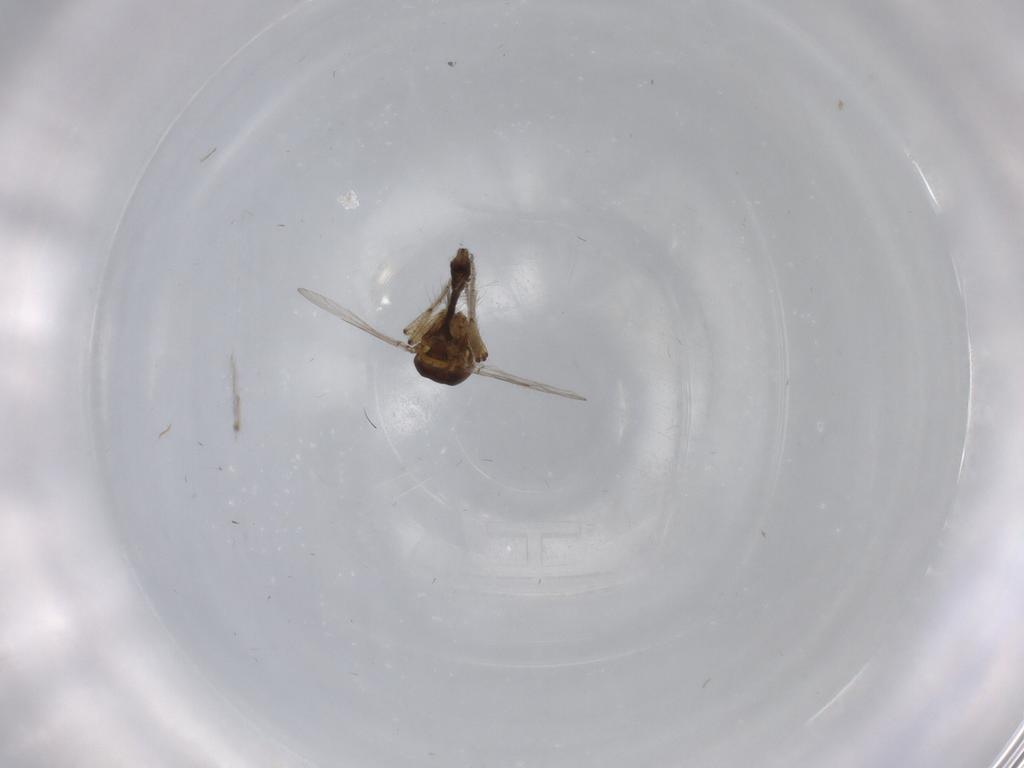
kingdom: Animalia
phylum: Arthropoda
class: Insecta
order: Diptera
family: Ceratopogonidae
